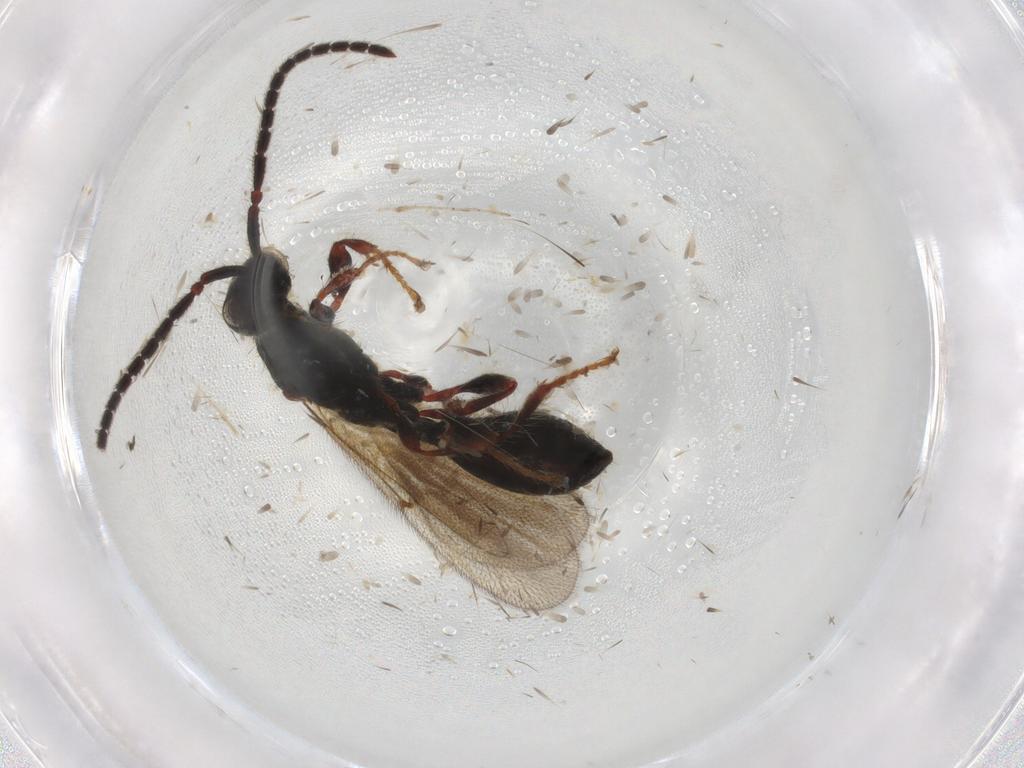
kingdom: Animalia
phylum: Arthropoda
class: Insecta
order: Hymenoptera
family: Diapriidae
